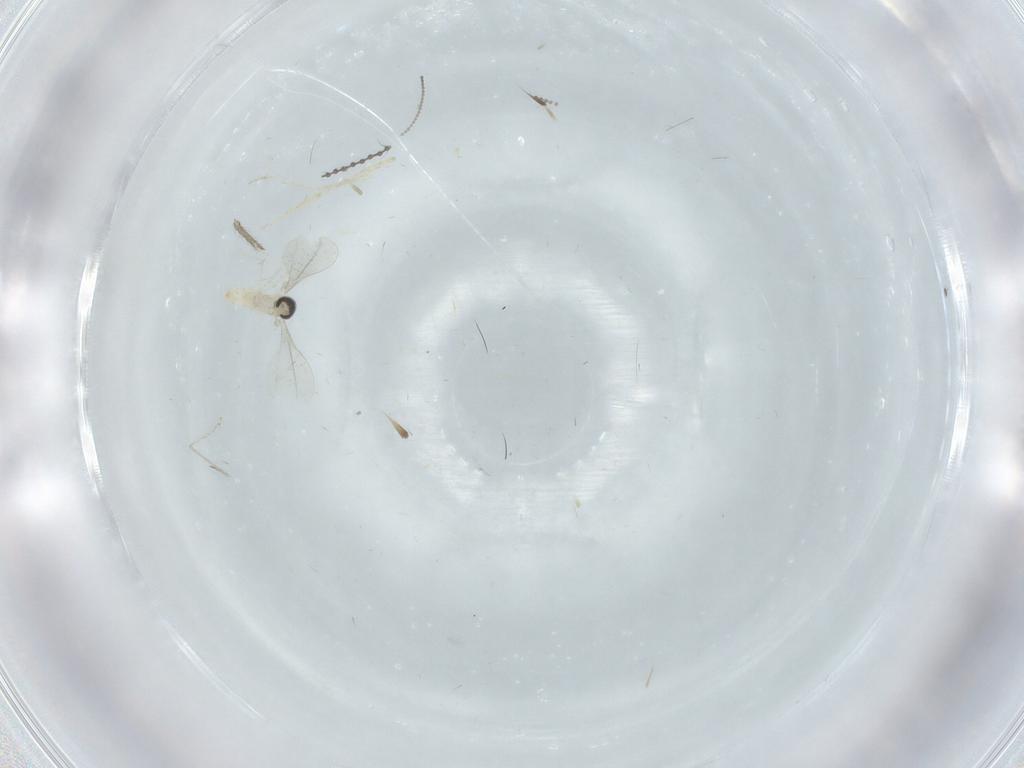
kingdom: Animalia
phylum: Arthropoda
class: Insecta
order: Diptera
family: Chironomidae
